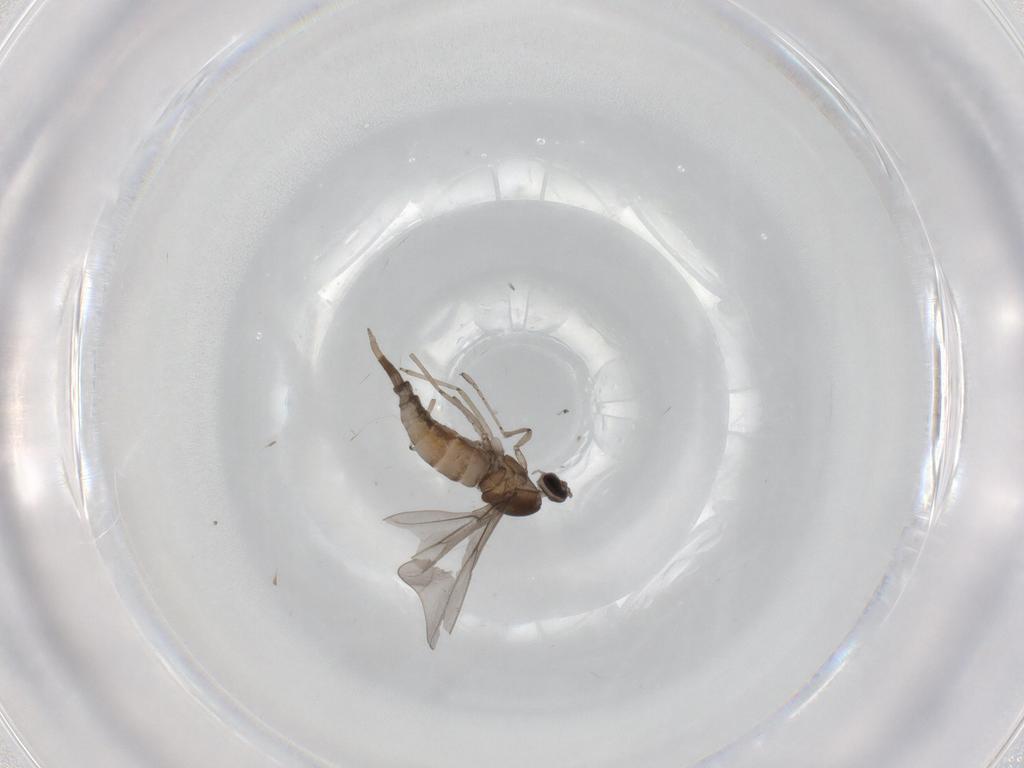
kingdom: Animalia
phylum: Arthropoda
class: Insecta
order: Diptera
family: Cecidomyiidae
